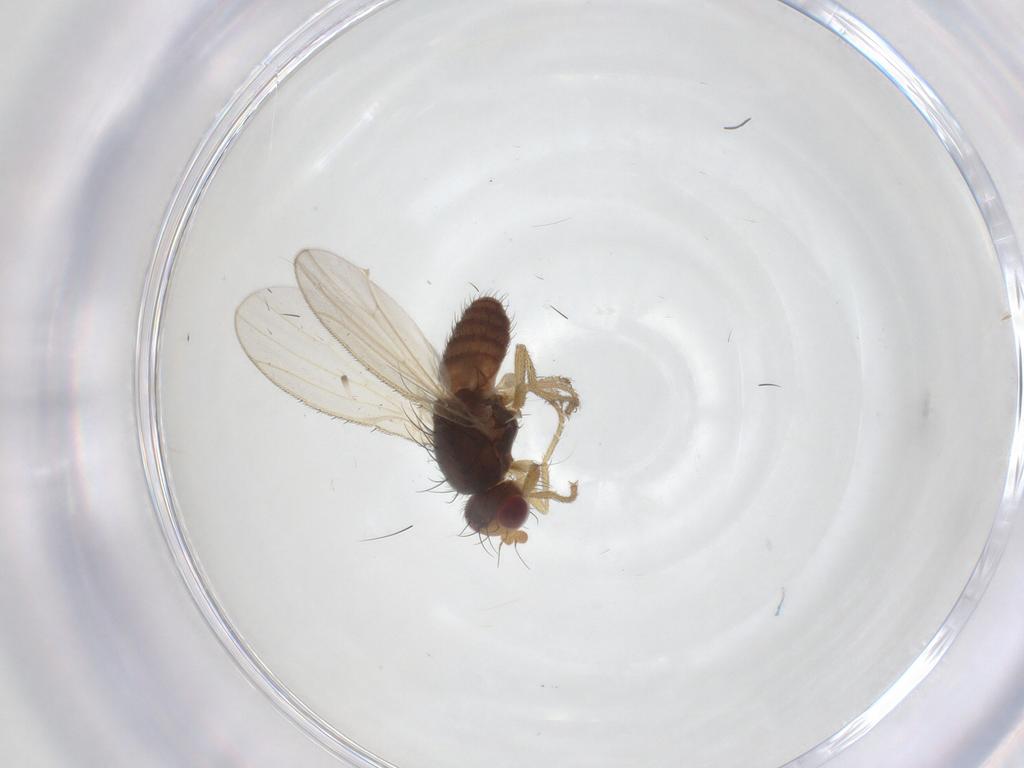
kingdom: Animalia
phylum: Arthropoda
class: Insecta
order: Diptera
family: Heleomyzidae
